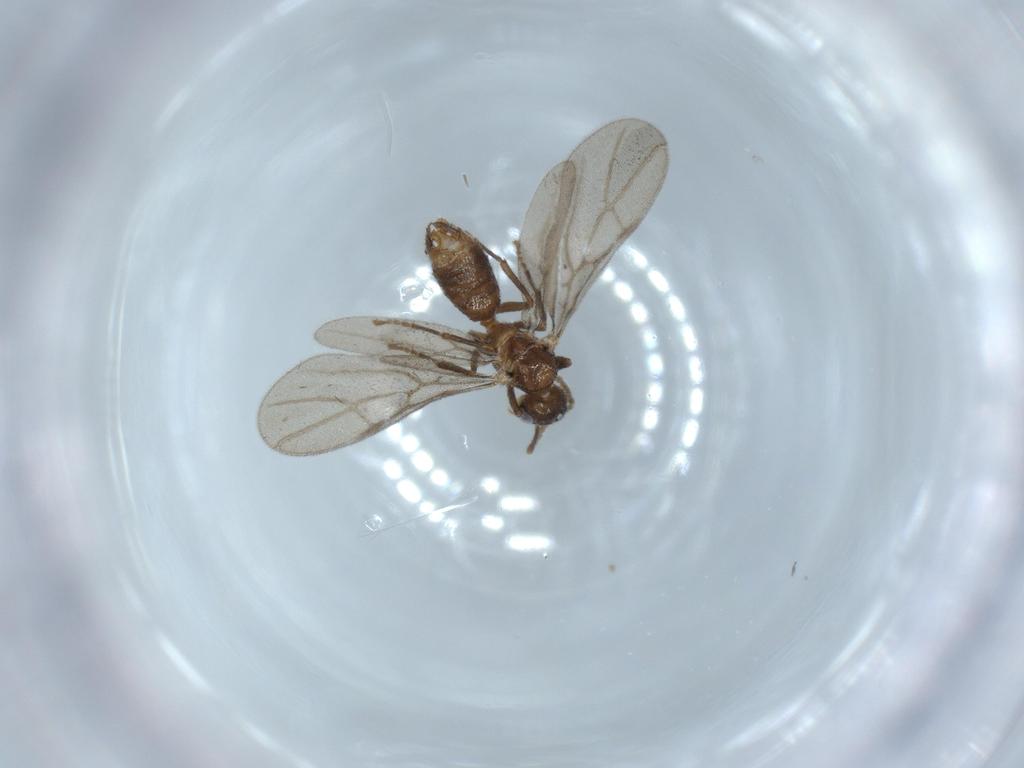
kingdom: Animalia
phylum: Arthropoda
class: Insecta
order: Hymenoptera
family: Formicidae
